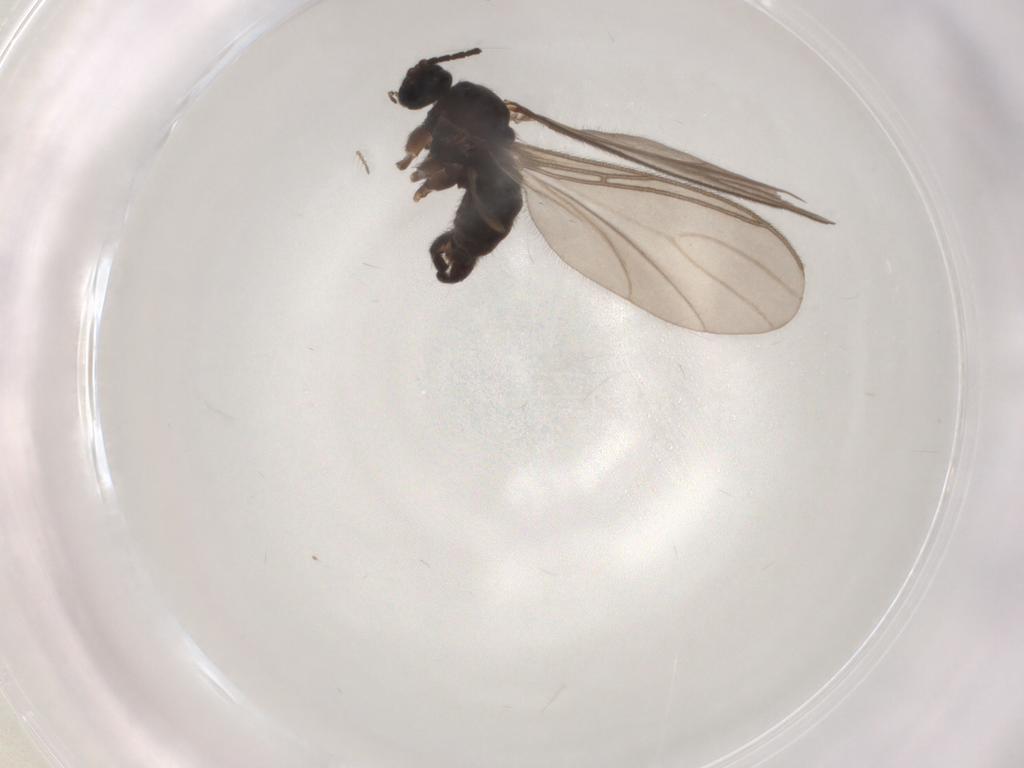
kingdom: Animalia
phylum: Arthropoda
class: Insecta
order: Diptera
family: Sciaridae
